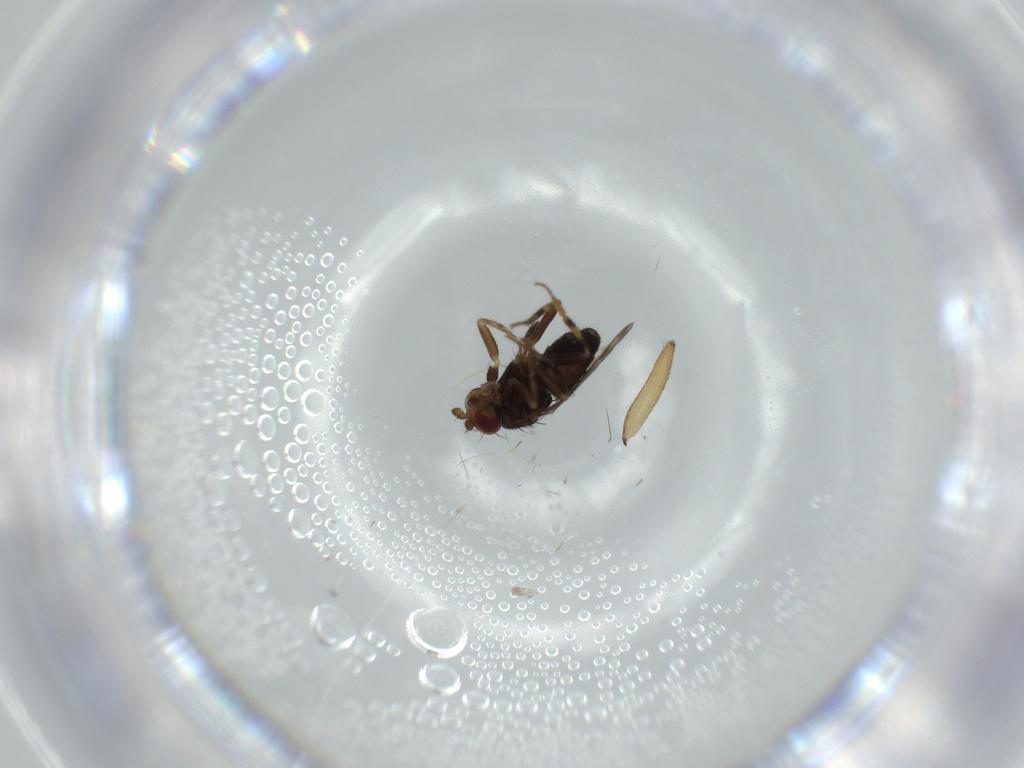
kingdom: Animalia
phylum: Arthropoda
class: Insecta
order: Diptera
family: Sphaeroceridae
